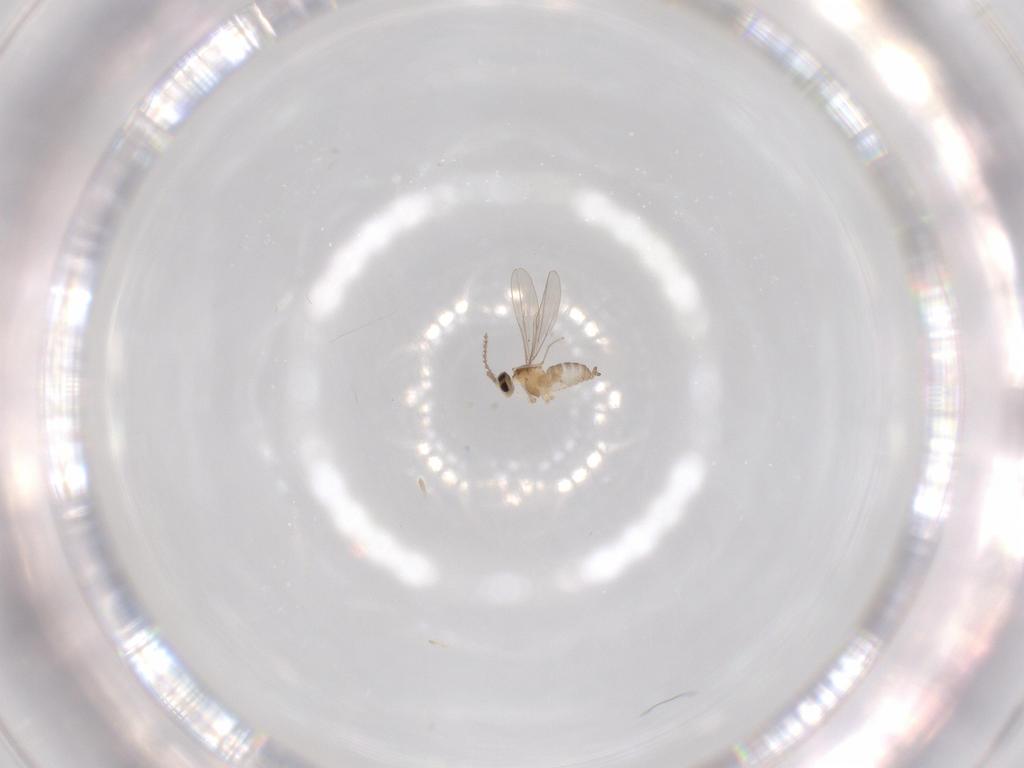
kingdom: Animalia
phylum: Arthropoda
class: Insecta
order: Diptera
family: Cecidomyiidae
